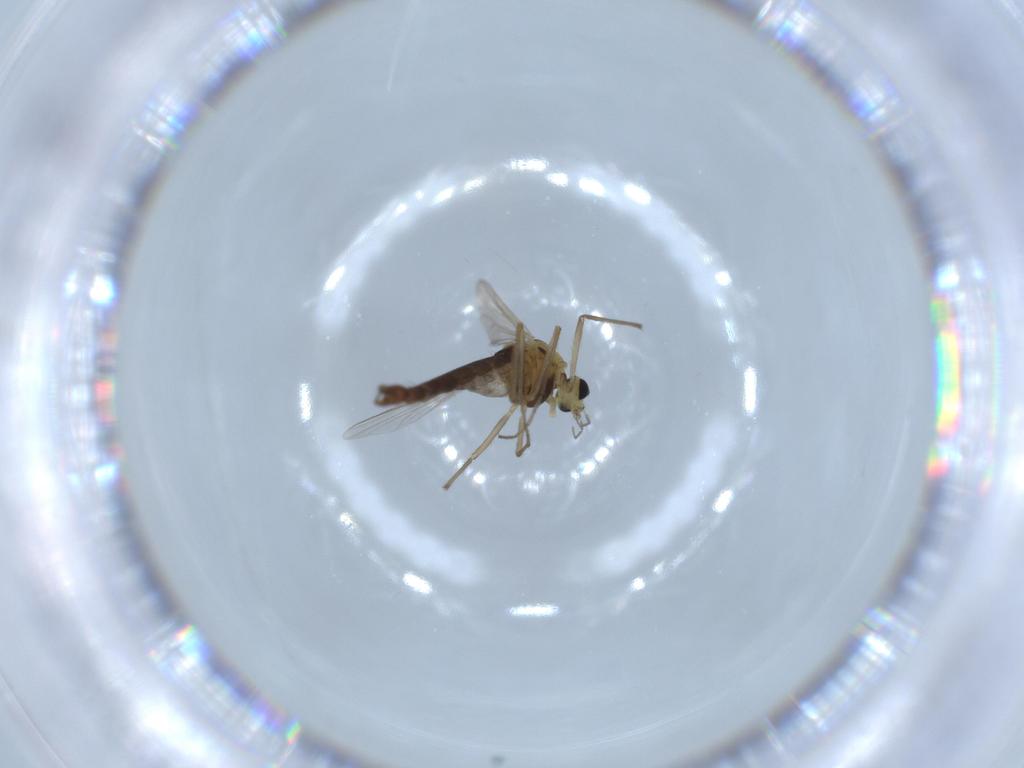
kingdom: Animalia
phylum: Arthropoda
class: Insecta
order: Diptera
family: Chironomidae
